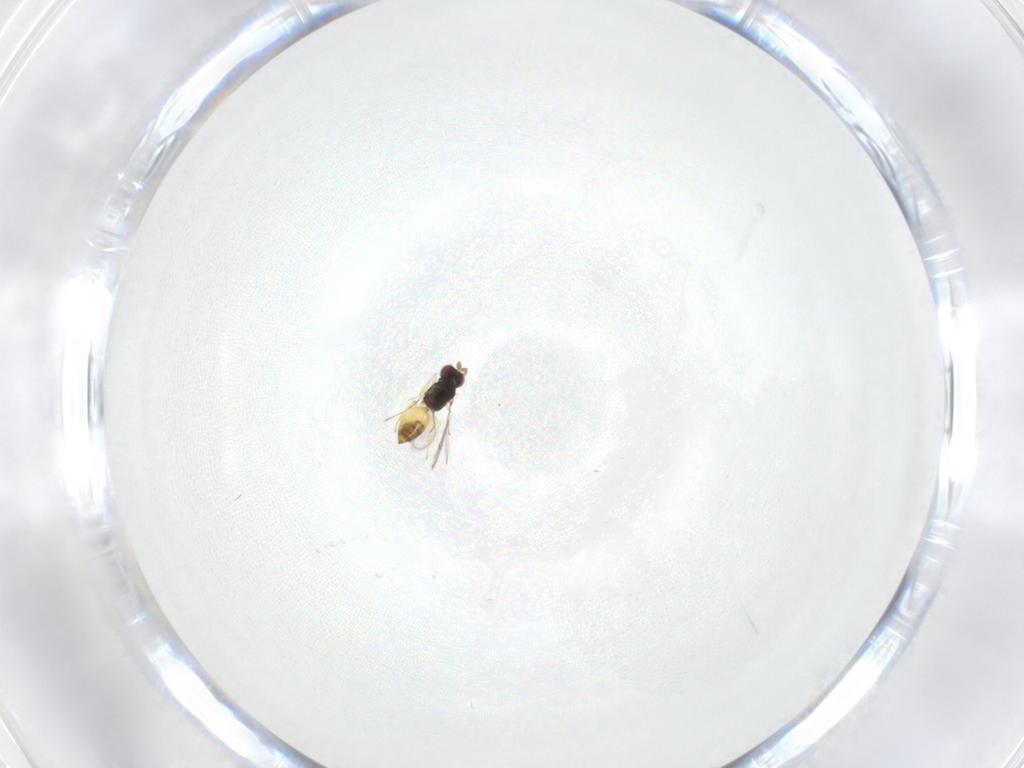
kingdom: Animalia
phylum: Arthropoda
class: Insecta
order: Hymenoptera
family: Eulophidae
